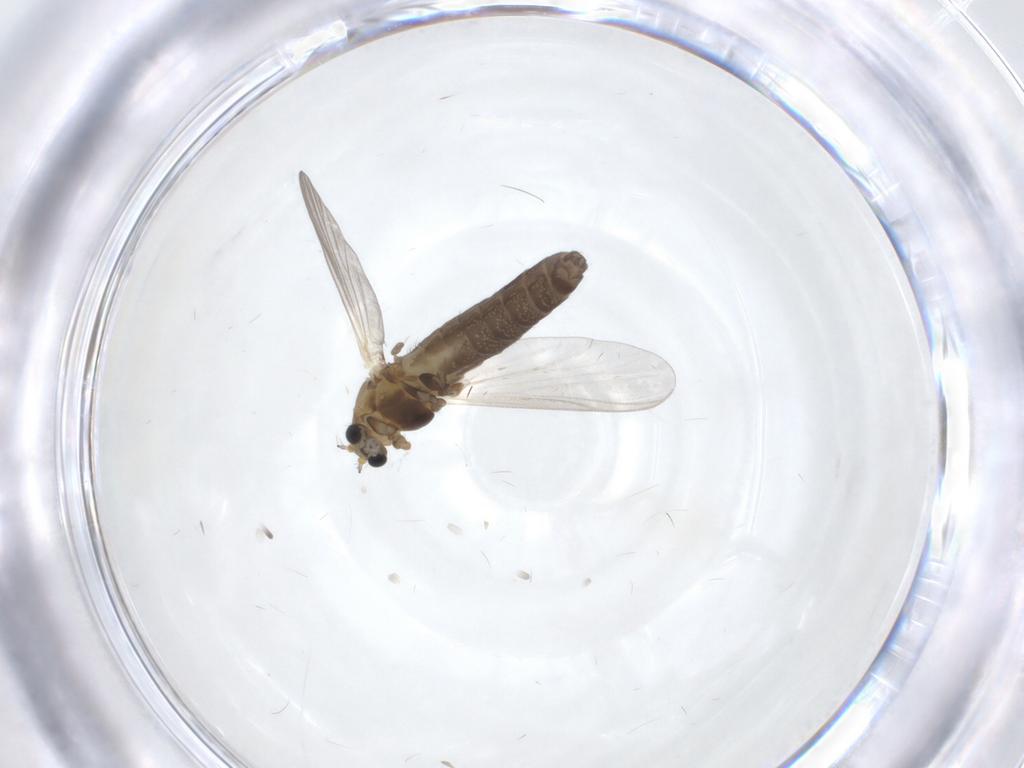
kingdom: Animalia
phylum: Arthropoda
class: Insecta
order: Diptera
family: Chironomidae
